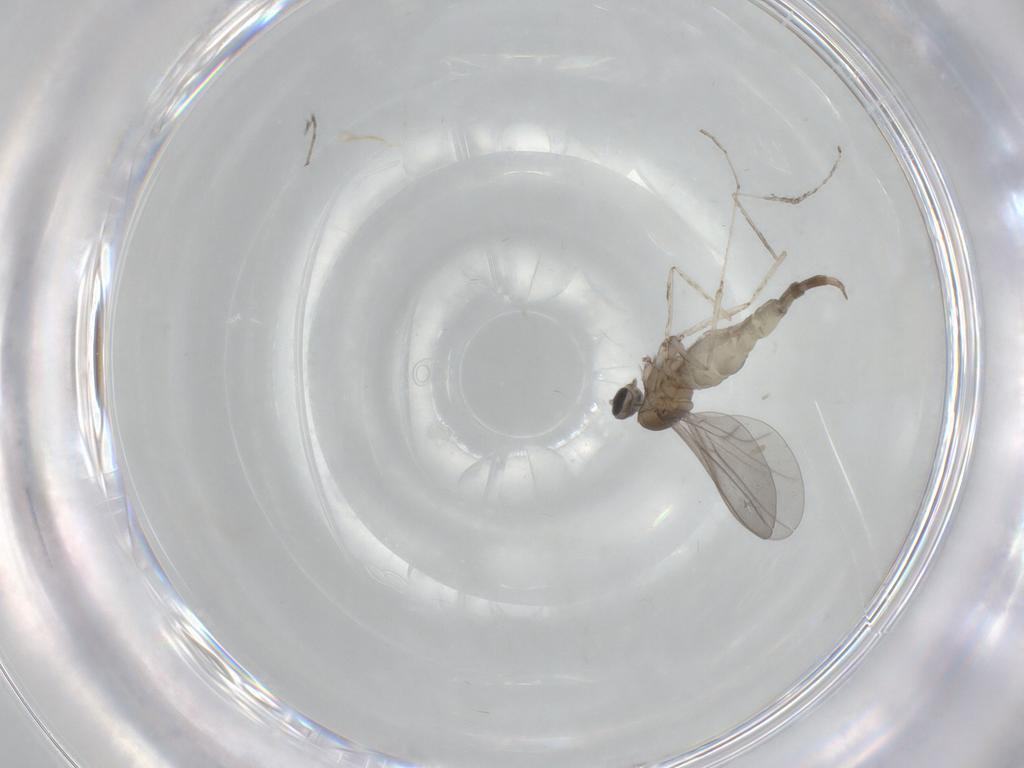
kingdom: Animalia
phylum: Arthropoda
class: Insecta
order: Diptera
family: Cecidomyiidae
